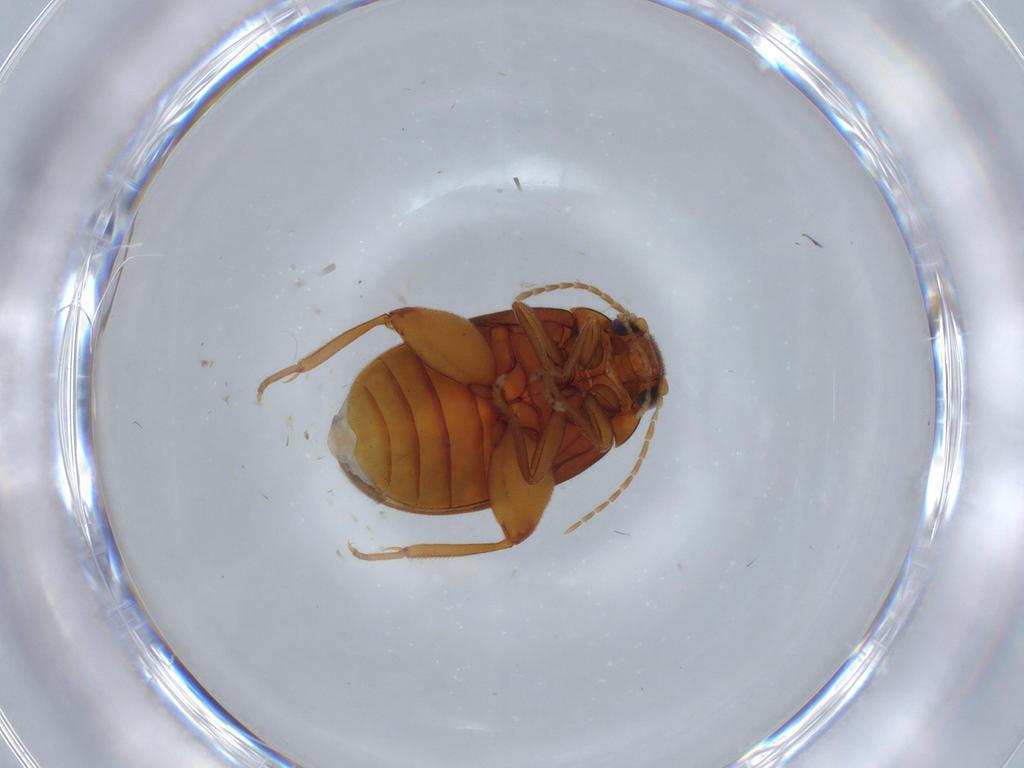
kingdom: Animalia
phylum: Arthropoda
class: Insecta
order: Coleoptera
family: Scirtidae
